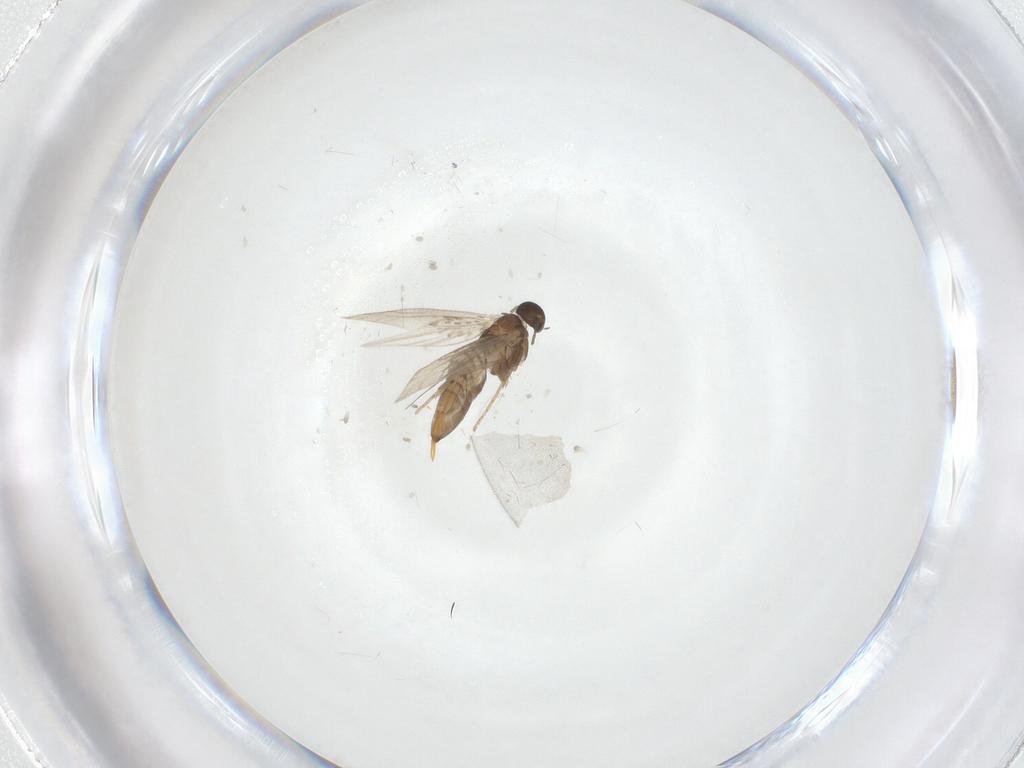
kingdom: Animalia
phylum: Arthropoda
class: Insecta
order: Lepidoptera
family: Heliozelidae
